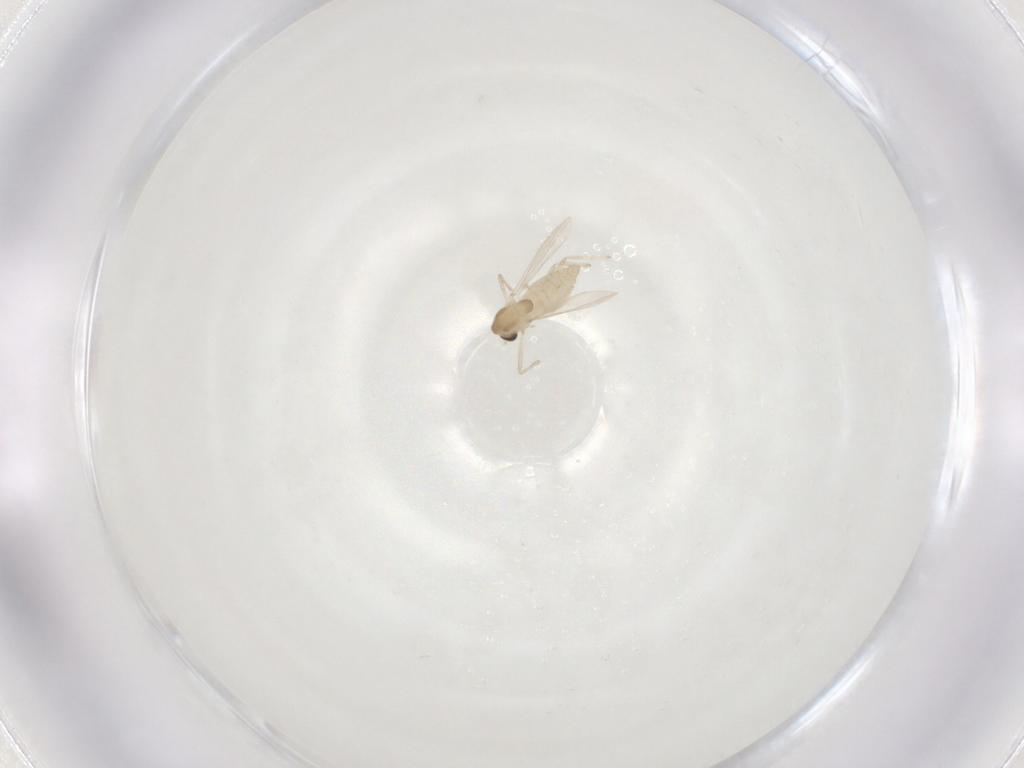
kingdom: Animalia
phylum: Arthropoda
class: Insecta
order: Diptera
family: Chironomidae
